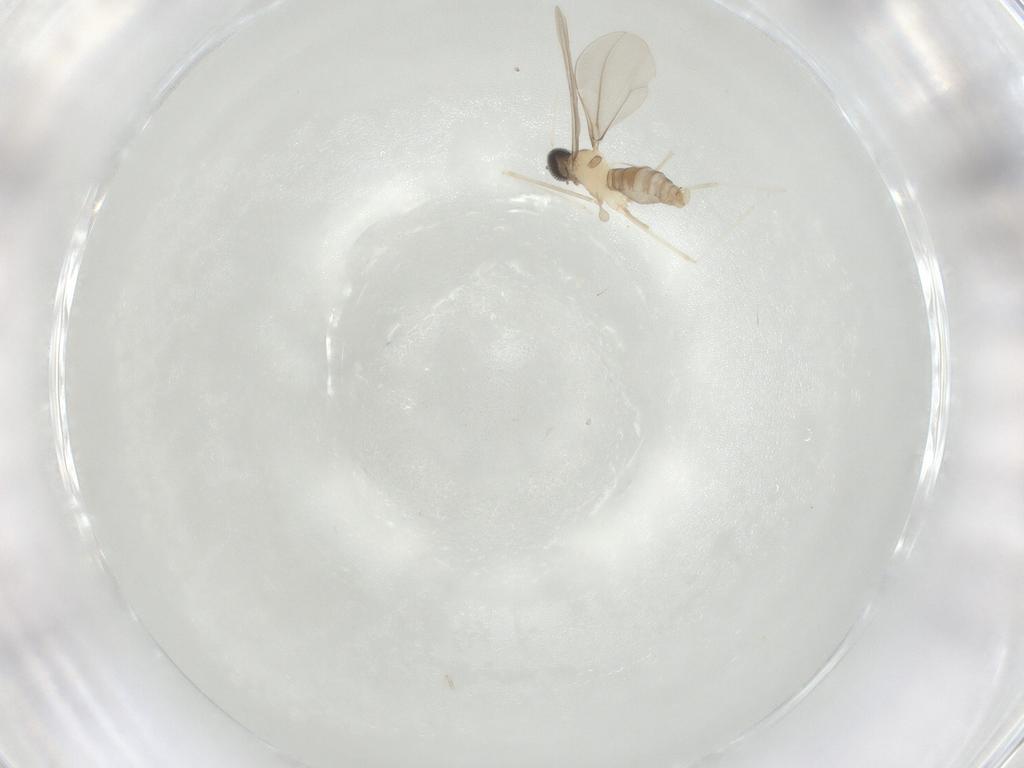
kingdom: Animalia
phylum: Arthropoda
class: Insecta
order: Diptera
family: Cecidomyiidae
